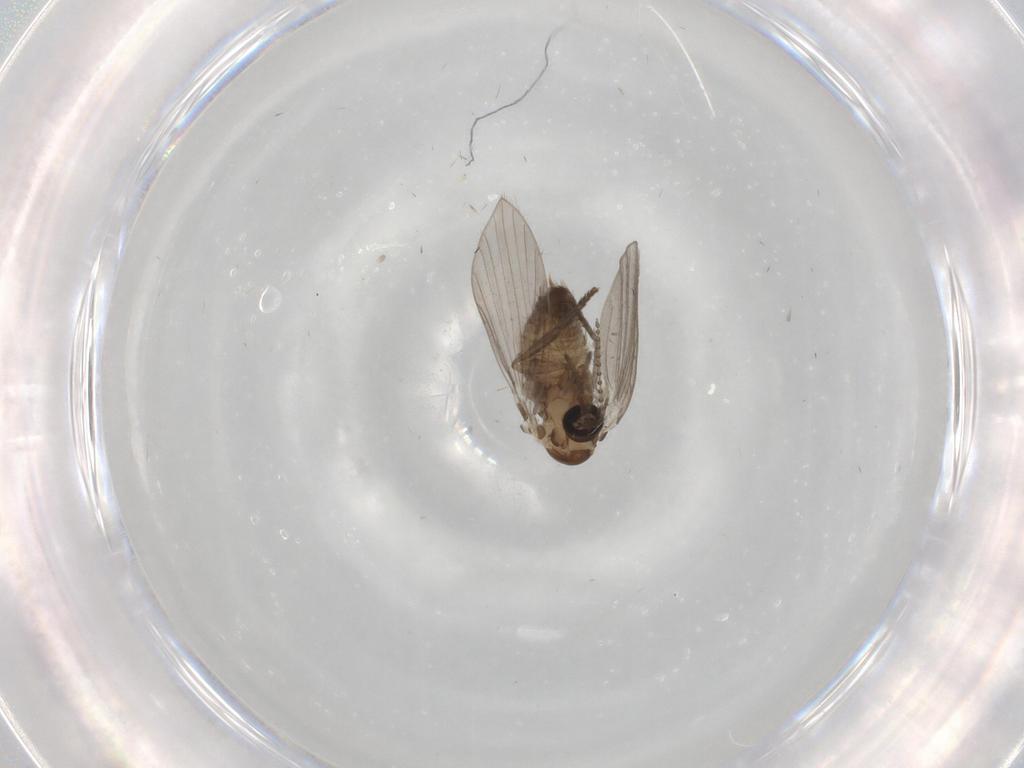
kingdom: Animalia
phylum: Arthropoda
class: Insecta
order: Diptera
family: Psychodidae
